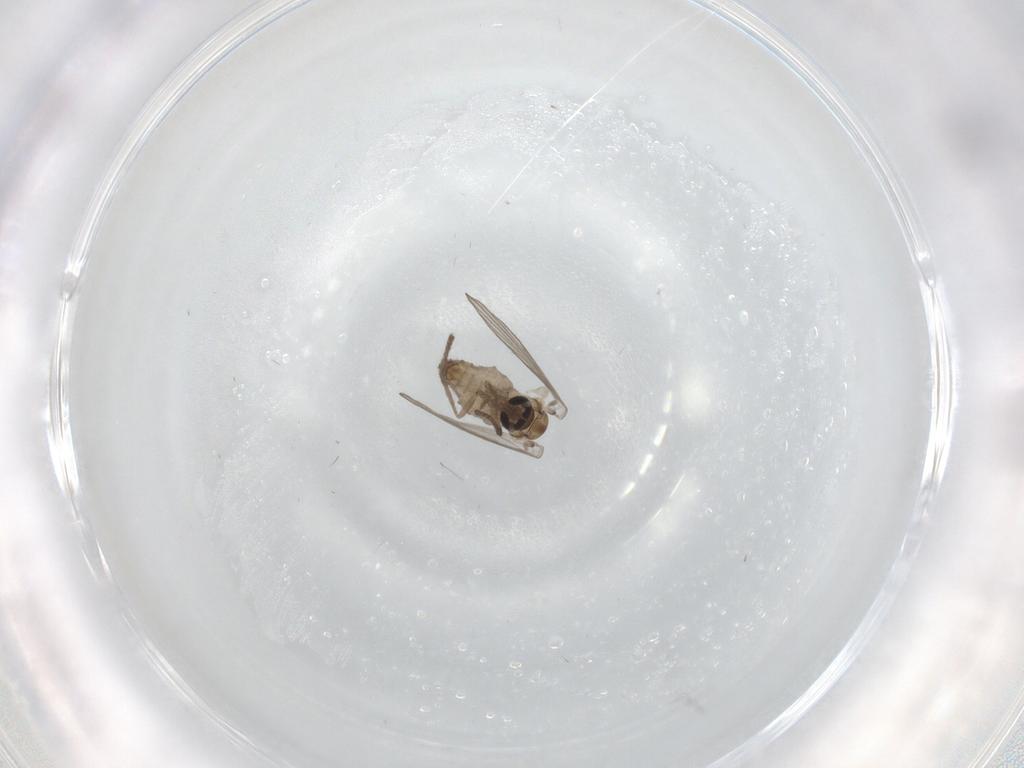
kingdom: Animalia
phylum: Arthropoda
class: Insecta
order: Diptera
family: Psychodidae
